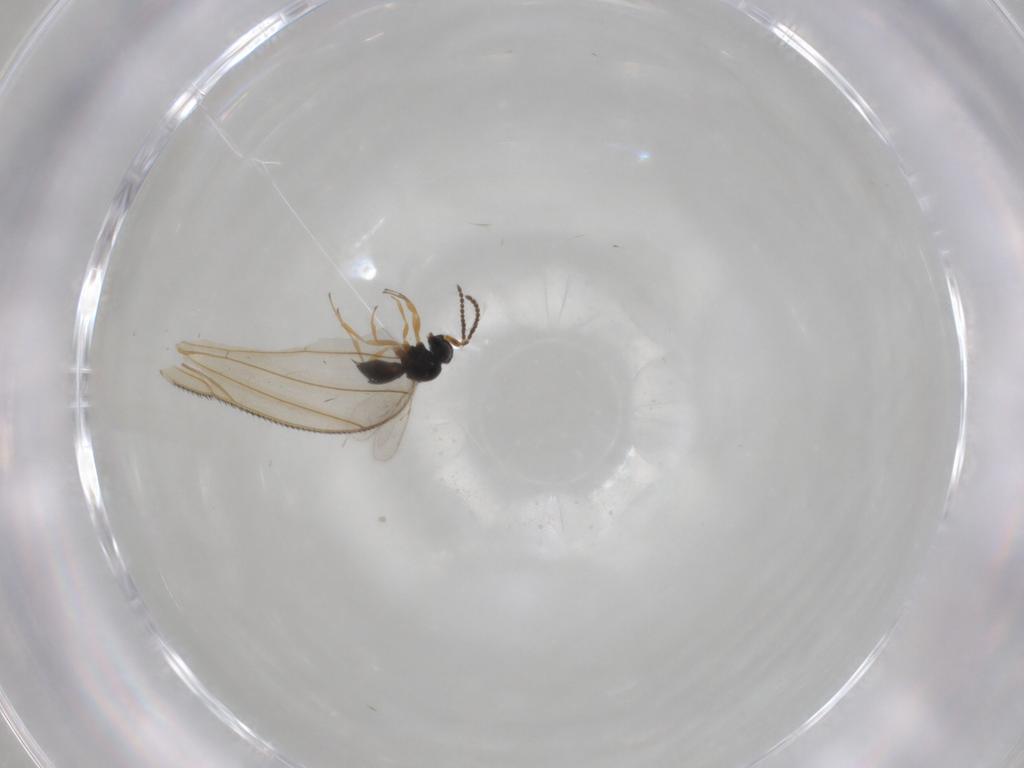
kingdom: Animalia
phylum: Arthropoda
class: Insecta
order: Hymenoptera
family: Scelionidae
